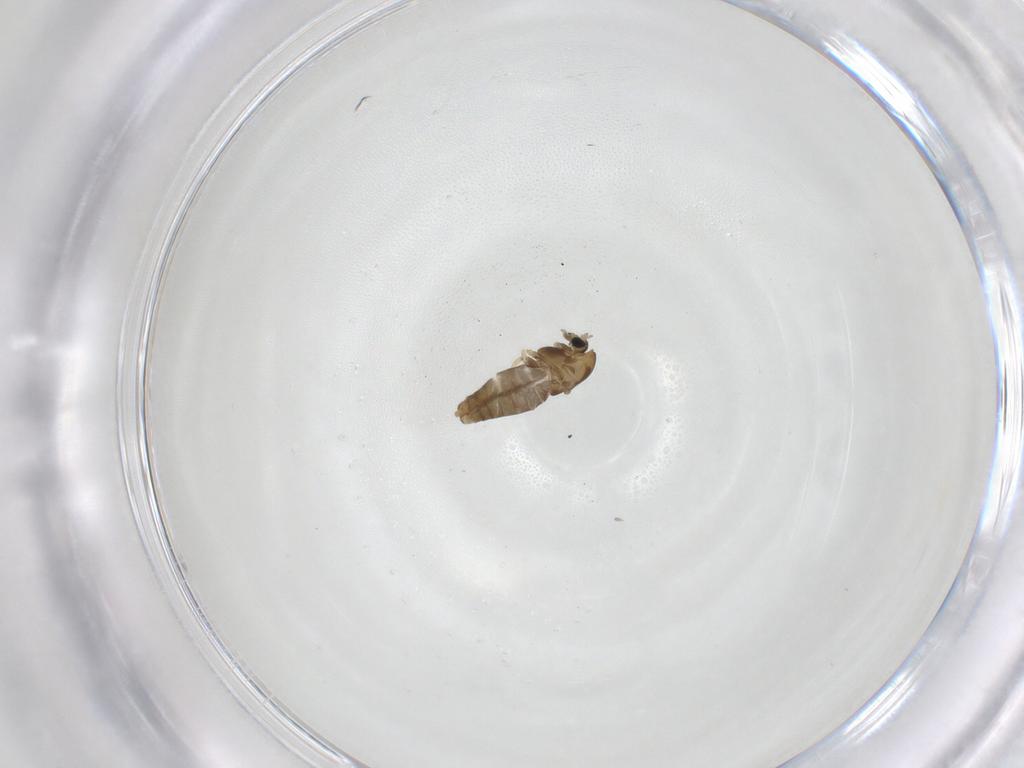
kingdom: Animalia
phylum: Arthropoda
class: Insecta
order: Diptera
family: Chironomidae
